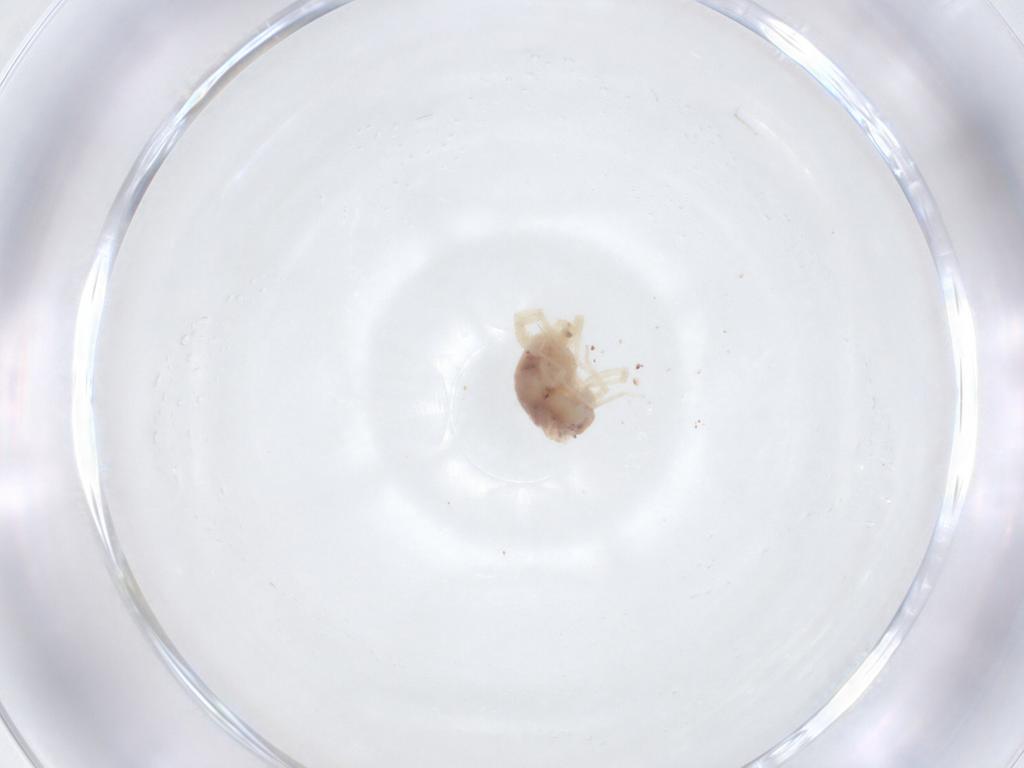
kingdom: Animalia
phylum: Arthropoda
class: Arachnida
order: Trombidiformes
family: Anystidae
